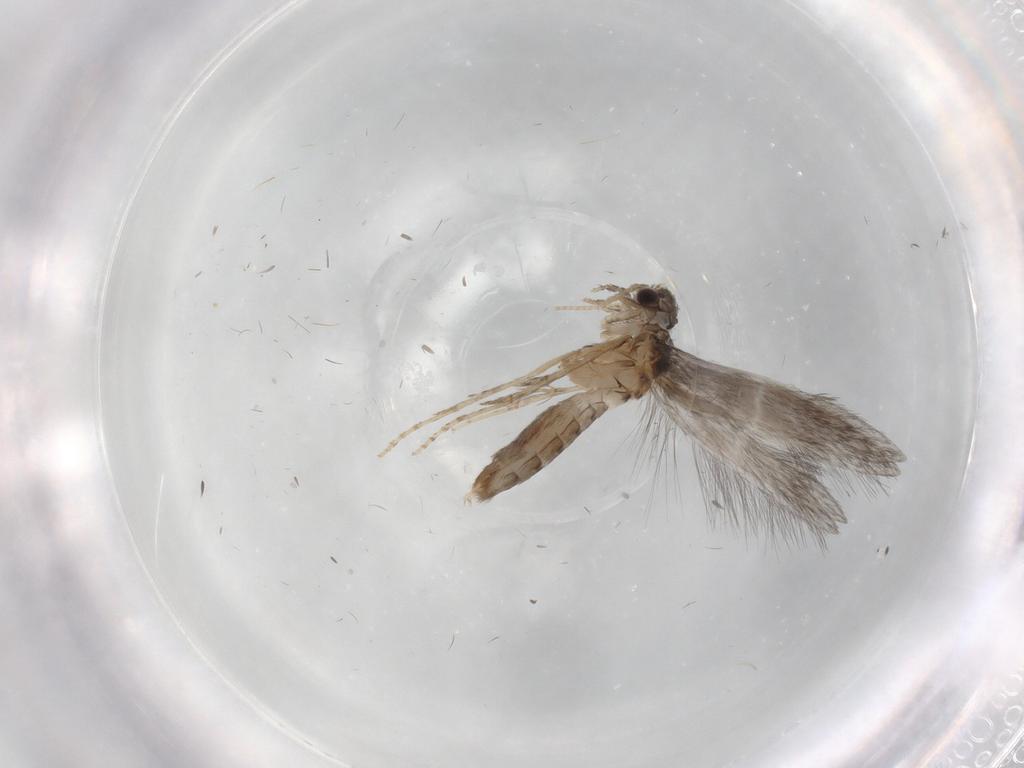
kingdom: Animalia
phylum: Arthropoda
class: Insecta
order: Trichoptera
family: Hydroptilidae
